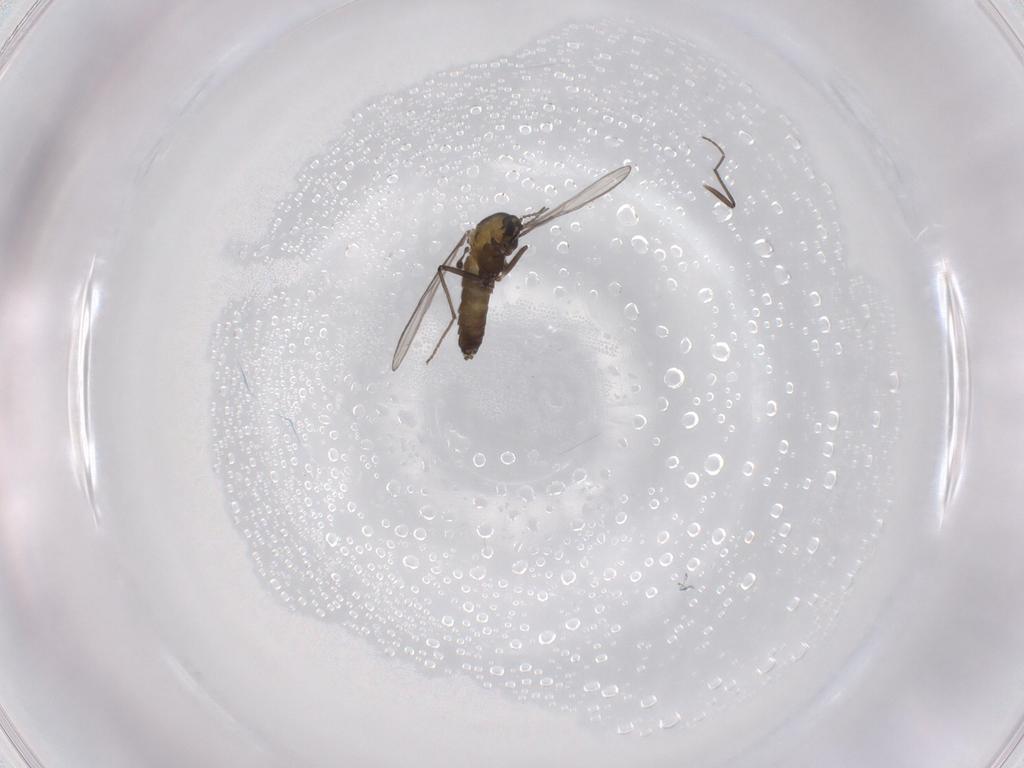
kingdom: Animalia
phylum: Arthropoda
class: Insecta
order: Diptera
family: Chironomidae
